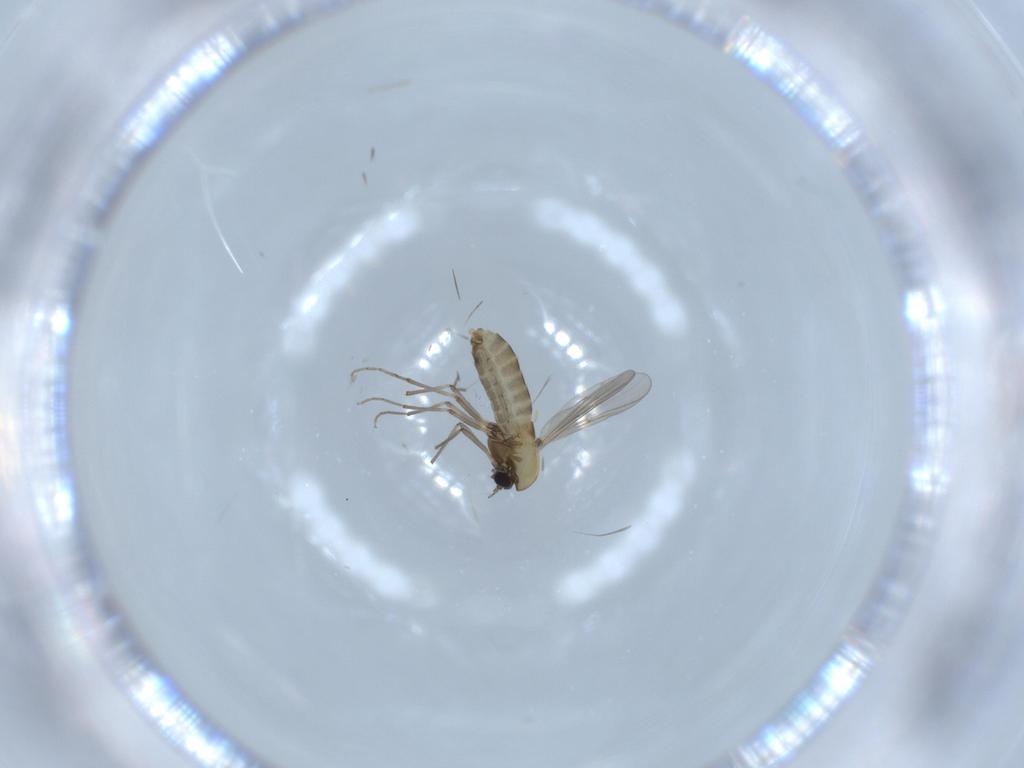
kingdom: Animalia
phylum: Arthropoda
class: Insecta
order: Diptera
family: Chironomidae
